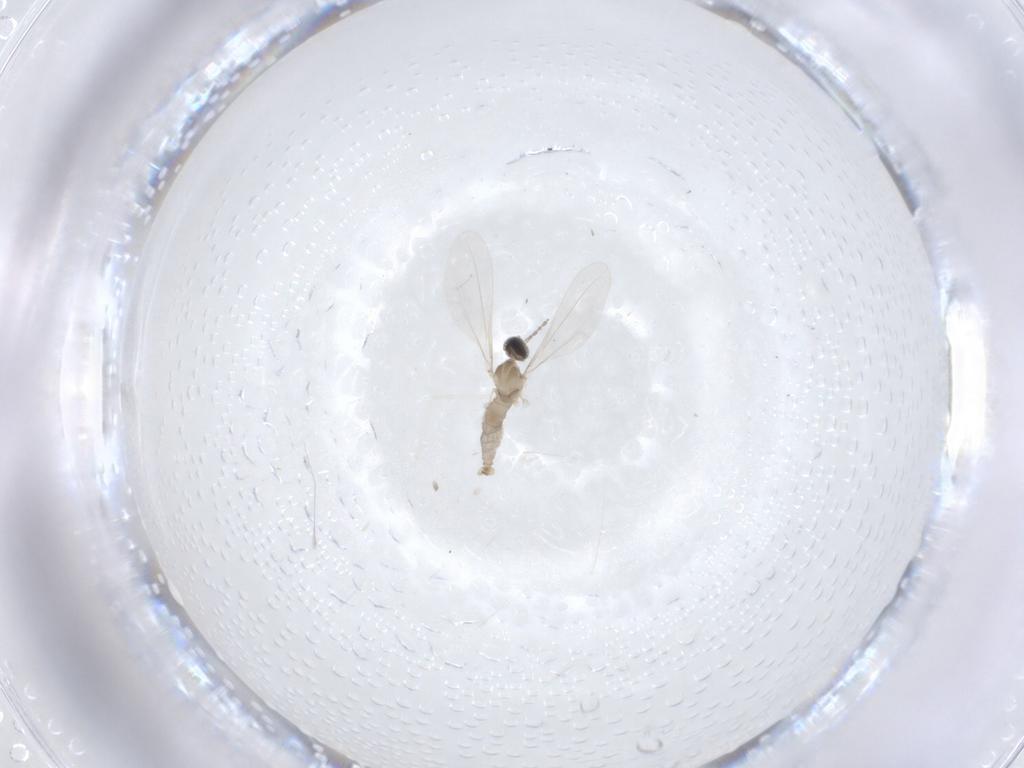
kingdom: Animalia
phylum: Arthropoda
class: Insecta
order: Diptera
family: Cecidomyiidae
